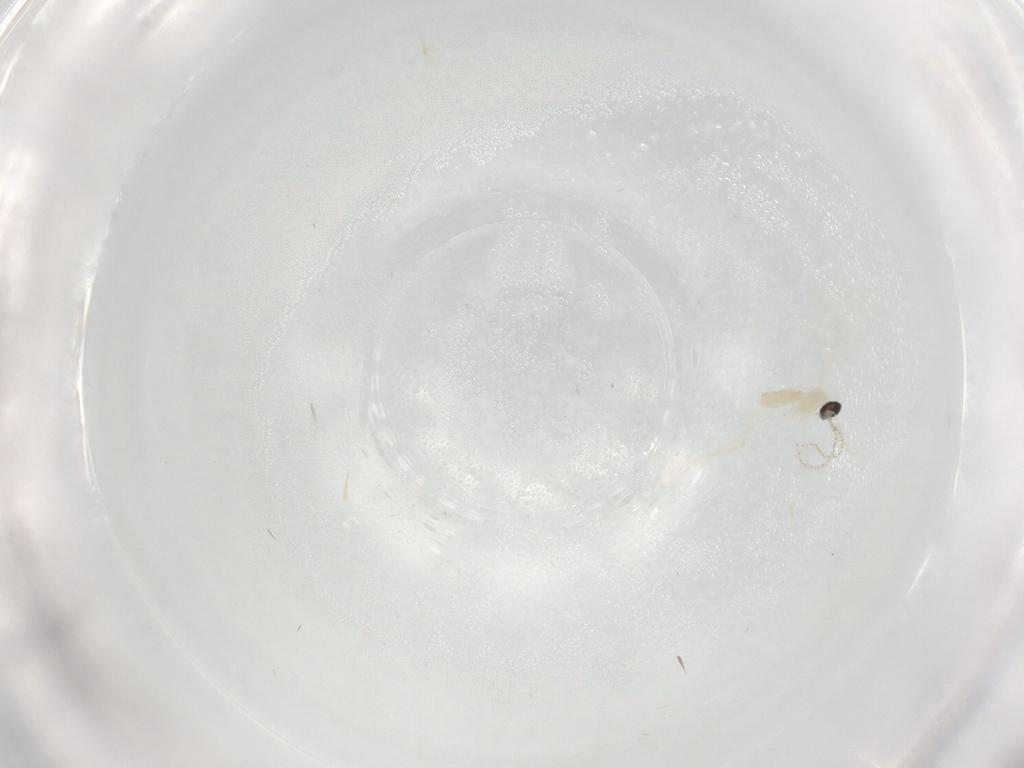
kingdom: Animalia
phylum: Arthropoda
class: Insecta
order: Diptera
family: Cecidomyiidae
